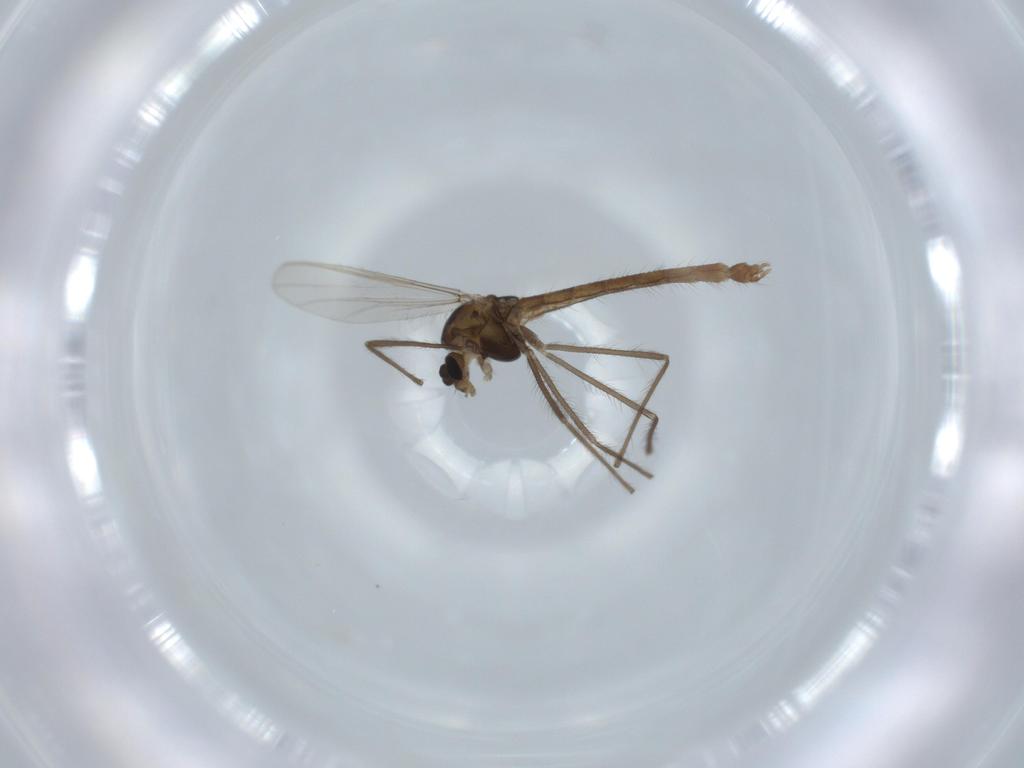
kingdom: Animalia
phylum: Arthropoda
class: Insecta
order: Diptera
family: Chironomidae
